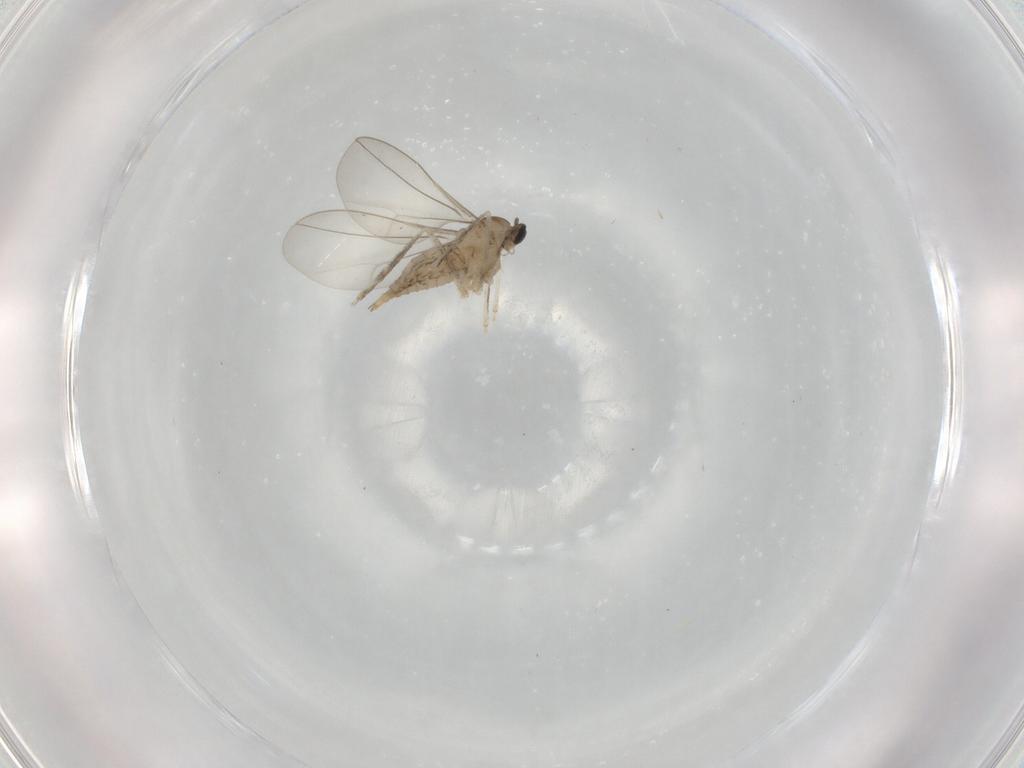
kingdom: Animalia
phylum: Arthropoda
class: Insecta
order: Diptera
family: Cecidomyiidae
